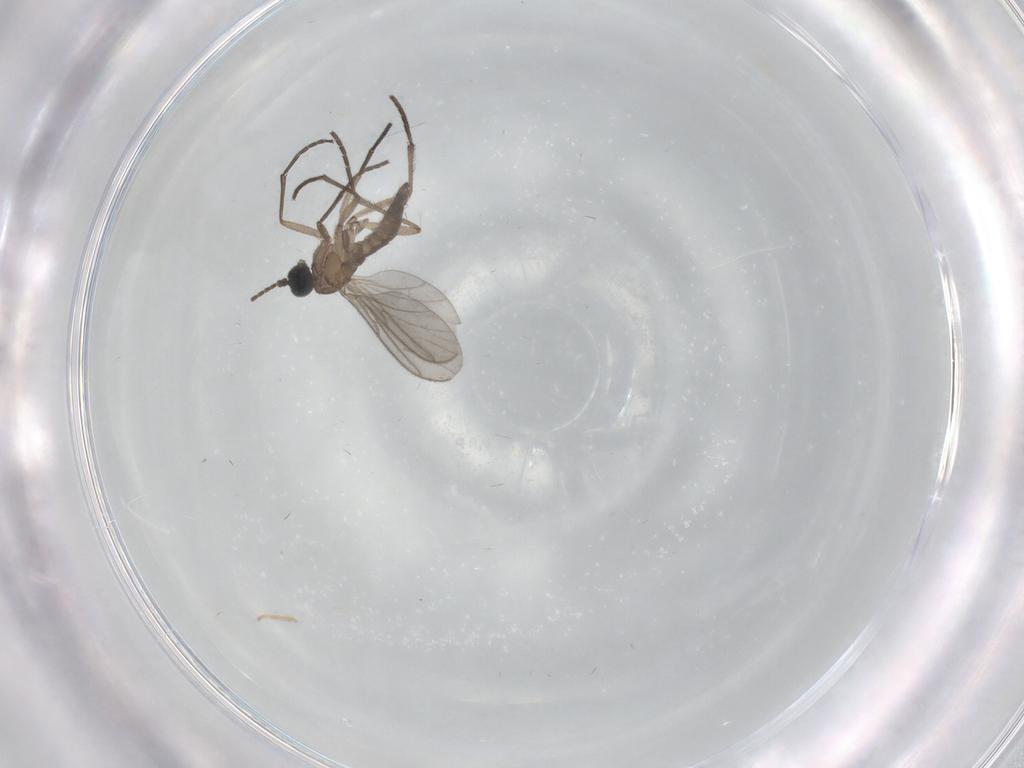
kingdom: Animalia
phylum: Arthropoda
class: Insecta
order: Diptera
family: Sciaridae
